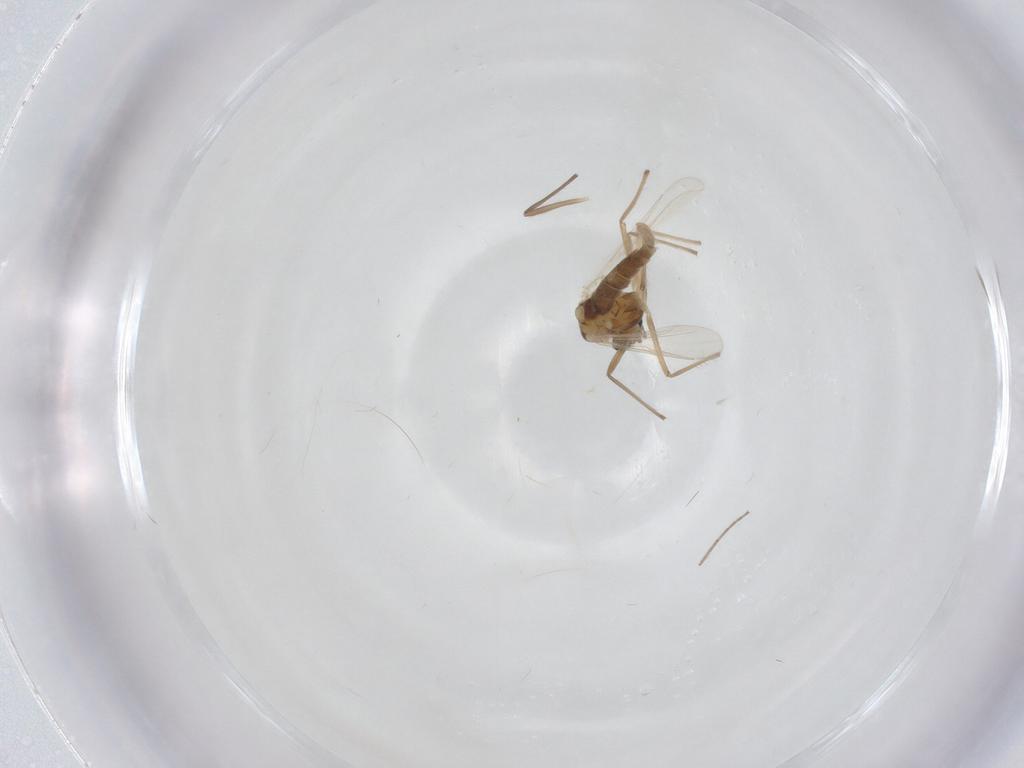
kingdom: Animalia
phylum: Arthropoda
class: Insecta
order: Diptera
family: Chironomidae
